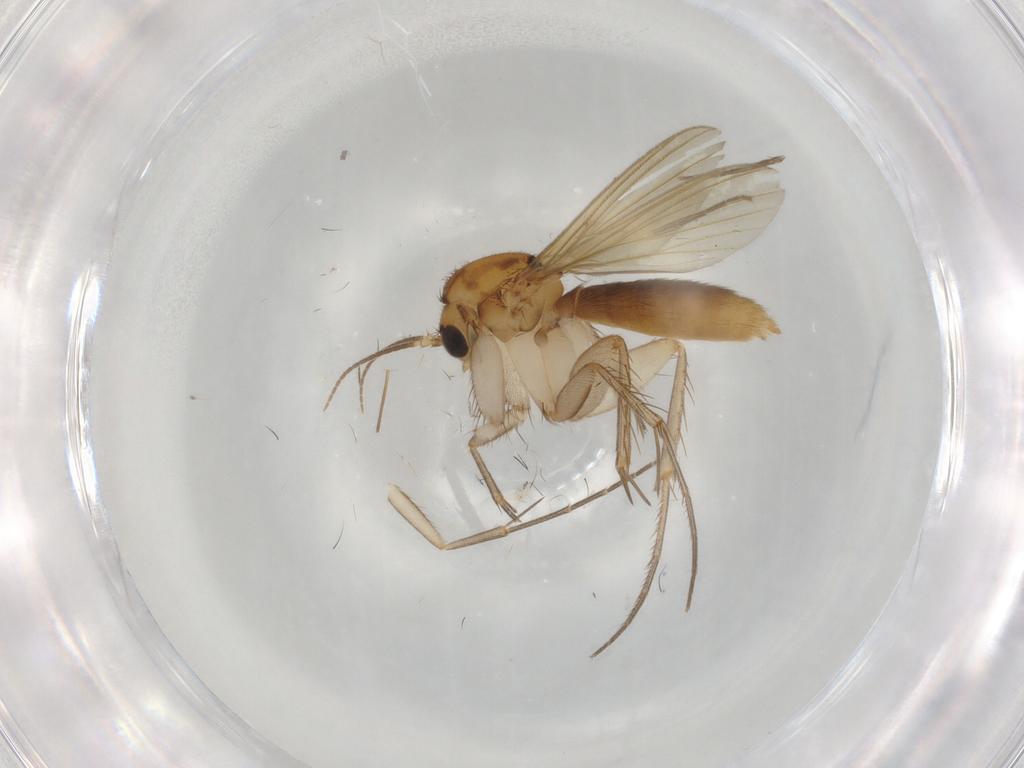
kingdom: Animalia
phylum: Arthropoda
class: Insecta
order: Diptera
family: Mycetophilidae
